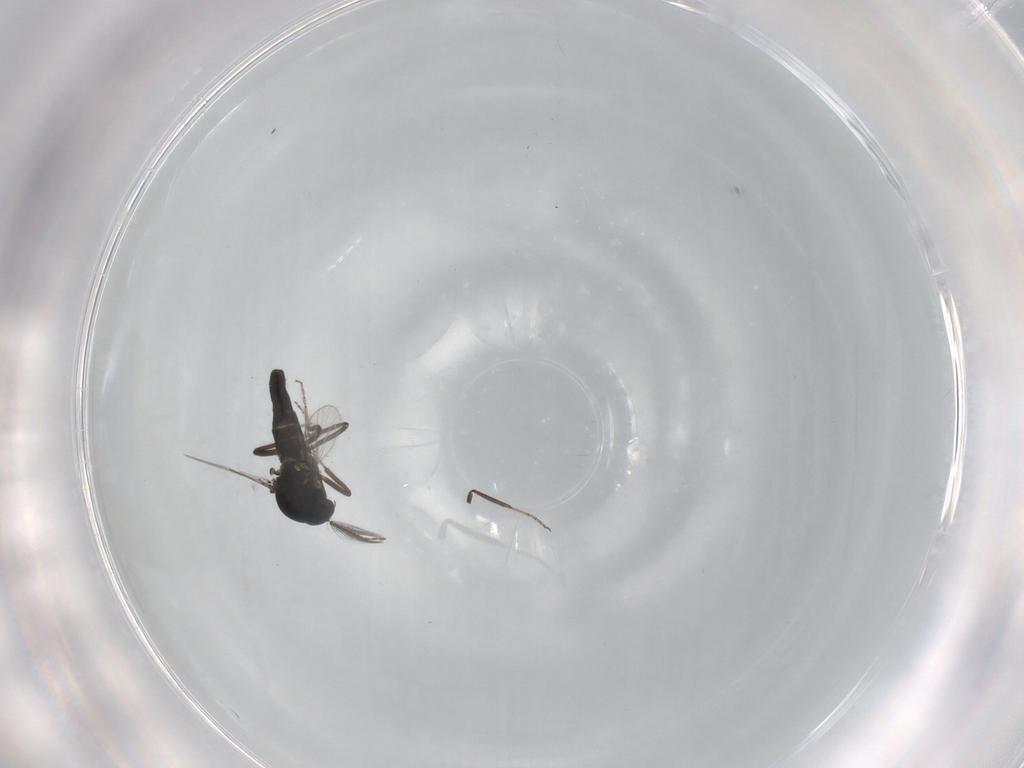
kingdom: Animalia
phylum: Arthropoda
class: Insecta
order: Diptera
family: Ceratopogonidae
